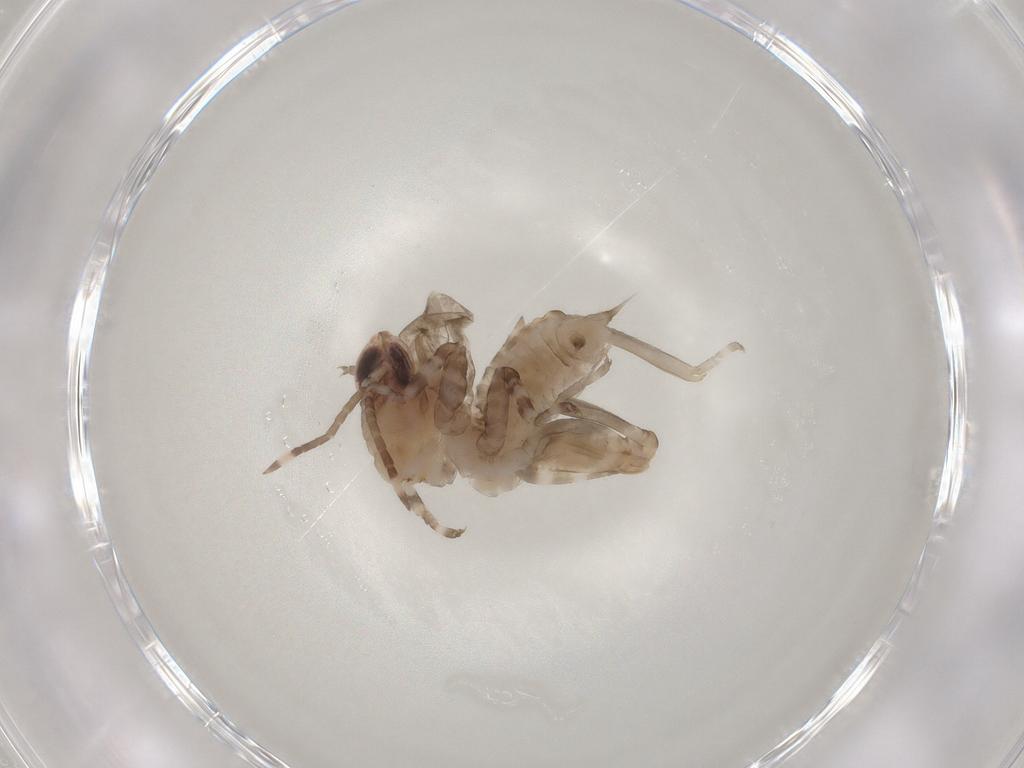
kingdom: Animalia
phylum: Arthropoda
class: Insecta
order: Orthoptera
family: Tetrigidae
